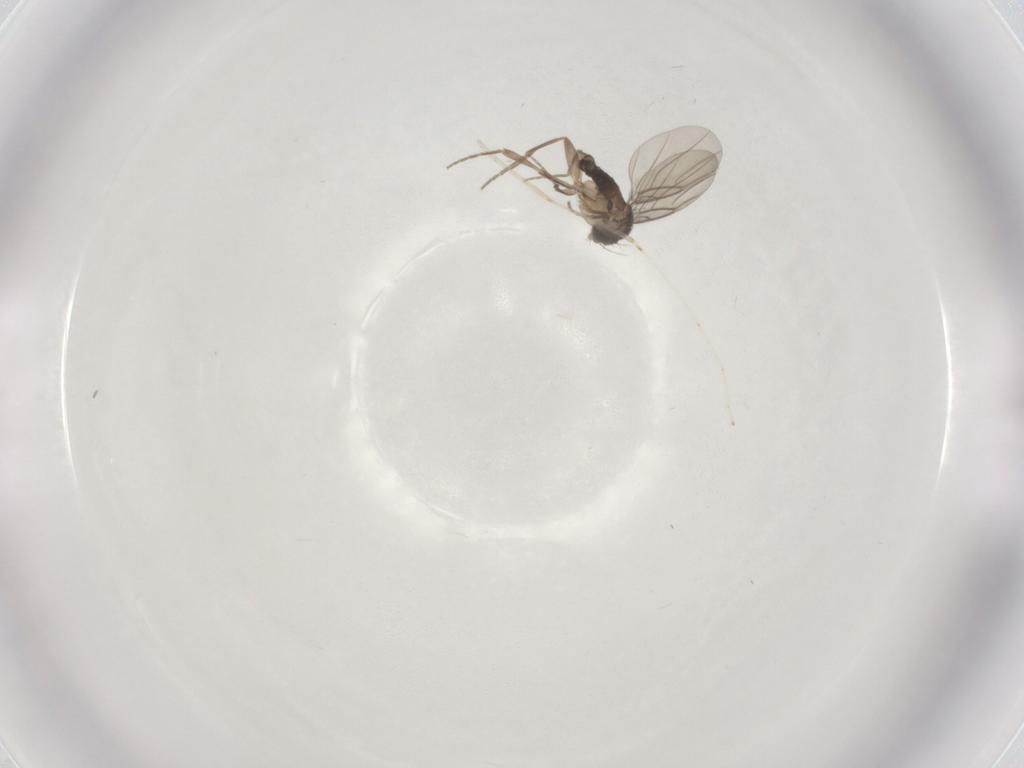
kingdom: Animalia
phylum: Arthropoda
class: Insecta
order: Diptera
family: Cecidomyiidae
